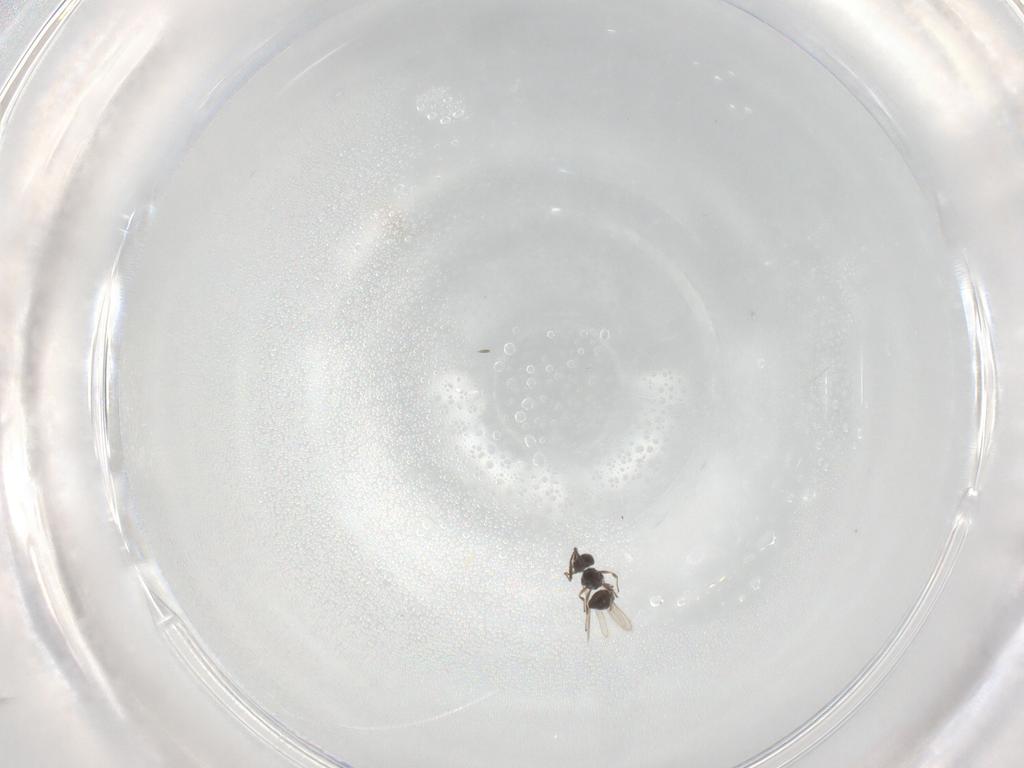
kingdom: Animalia
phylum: Arthropoda
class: Insecta
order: Hymenoptera
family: Scelionidae
